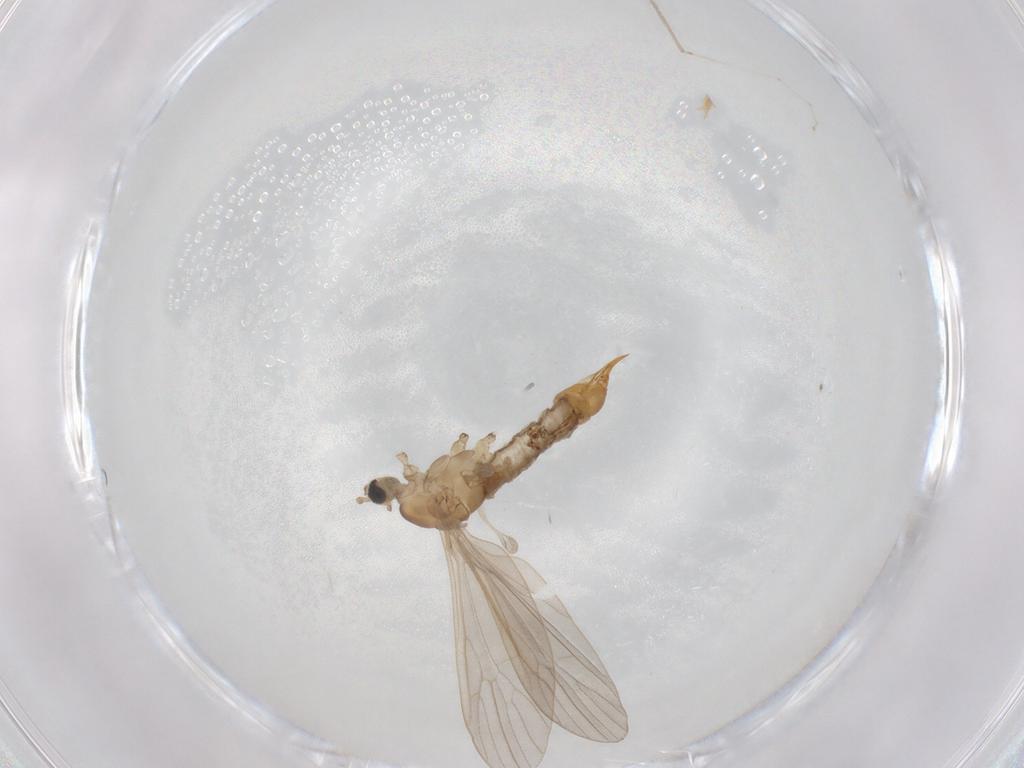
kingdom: Animalia
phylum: Arthropoda
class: Insecta
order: Diptera
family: Limoniidae
